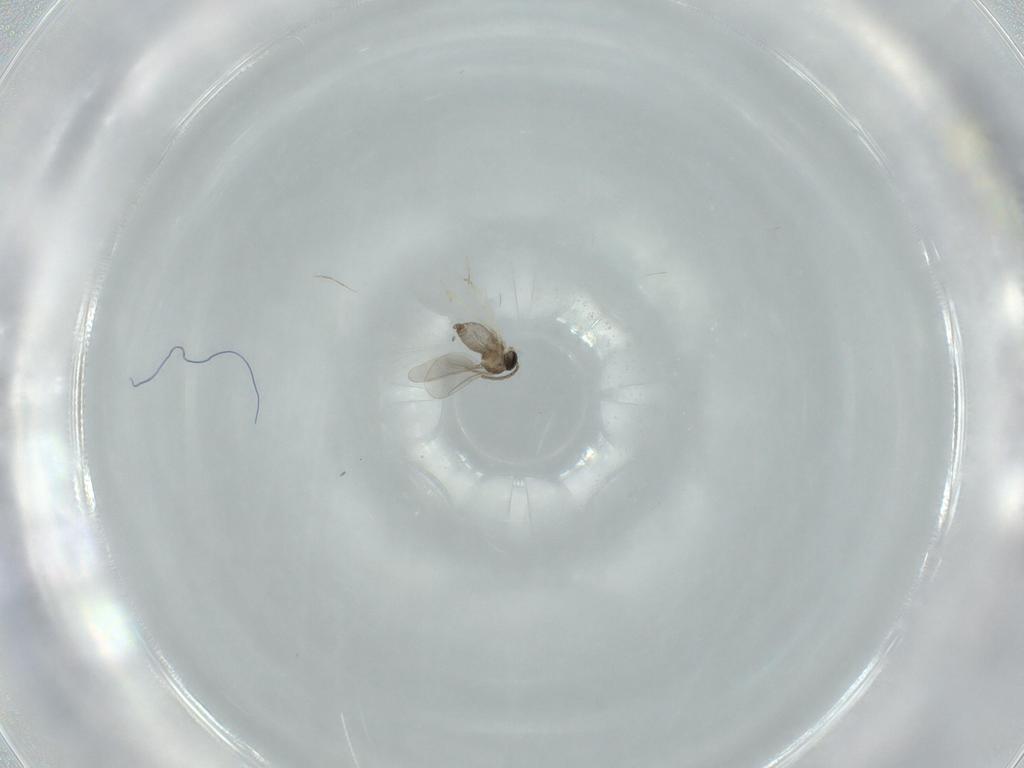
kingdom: Animalia
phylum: Arthropoda
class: Insecta
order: Diptera
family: Cecidomyiidae
